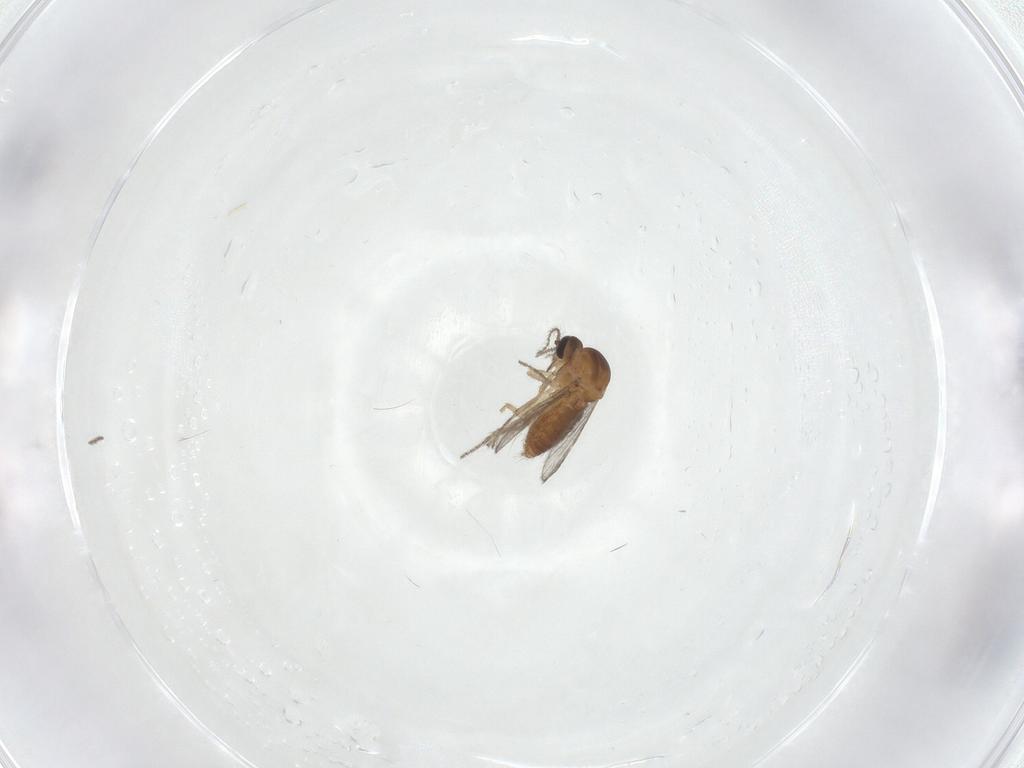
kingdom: Animalia
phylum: Arthropoda
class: Insecta
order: Diptera
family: Ceratopogonidae
